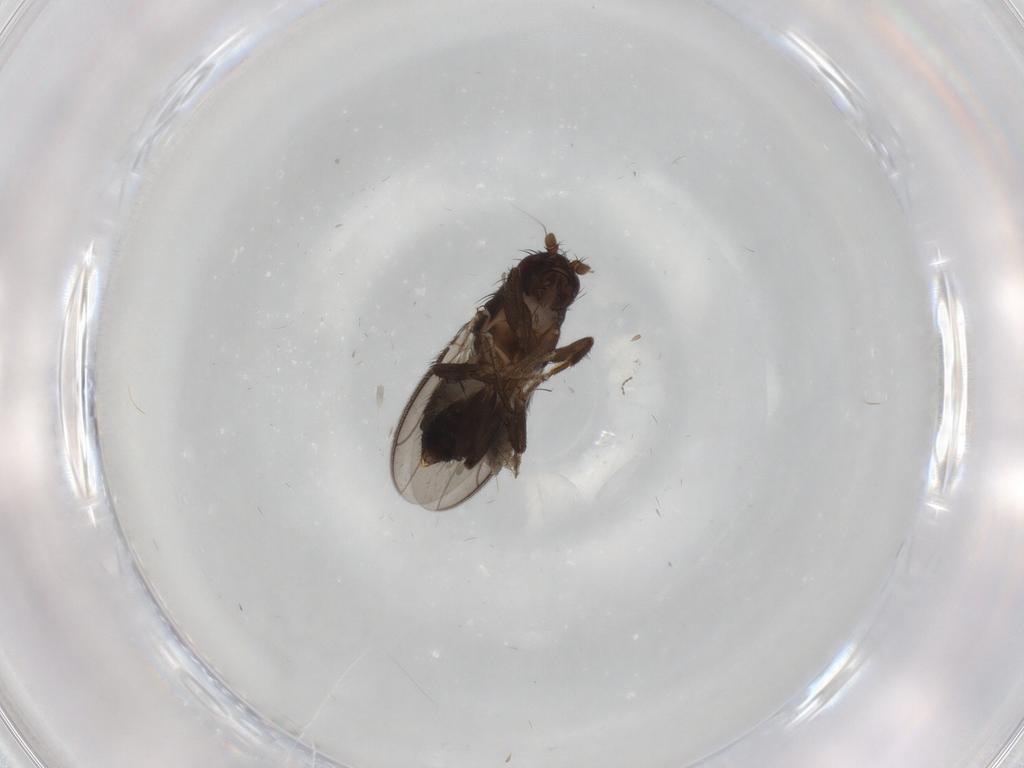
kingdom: Animalia
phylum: Arthropoda
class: Insecta
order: Diptera
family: Sphaeroceridae
